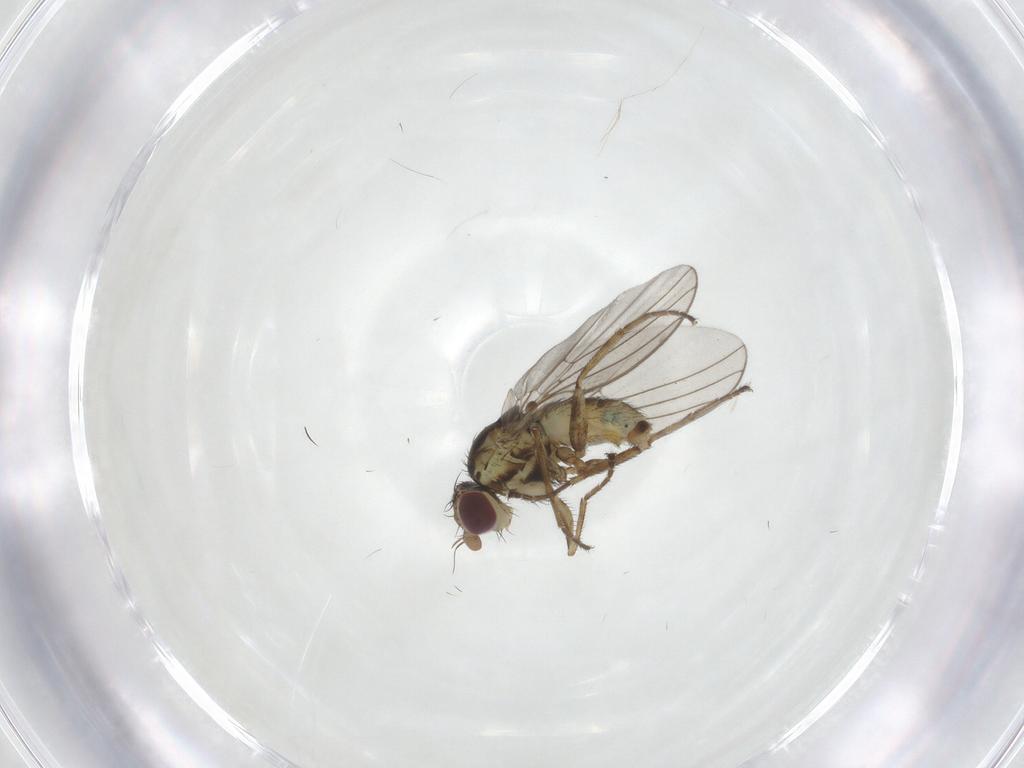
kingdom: Animalia
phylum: Arthropoda
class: Insecta
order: Diptera
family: Agromyzidae
